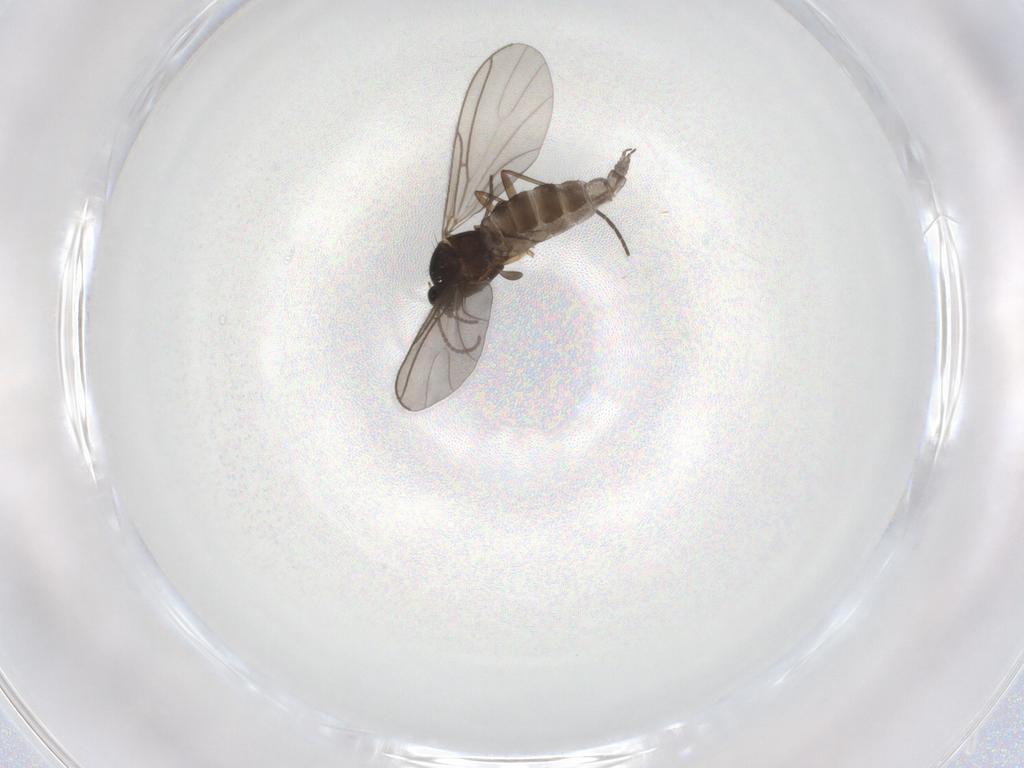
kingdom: Animalia
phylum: Arthropoda
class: Insecta
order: Diptera
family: Sciaridae
